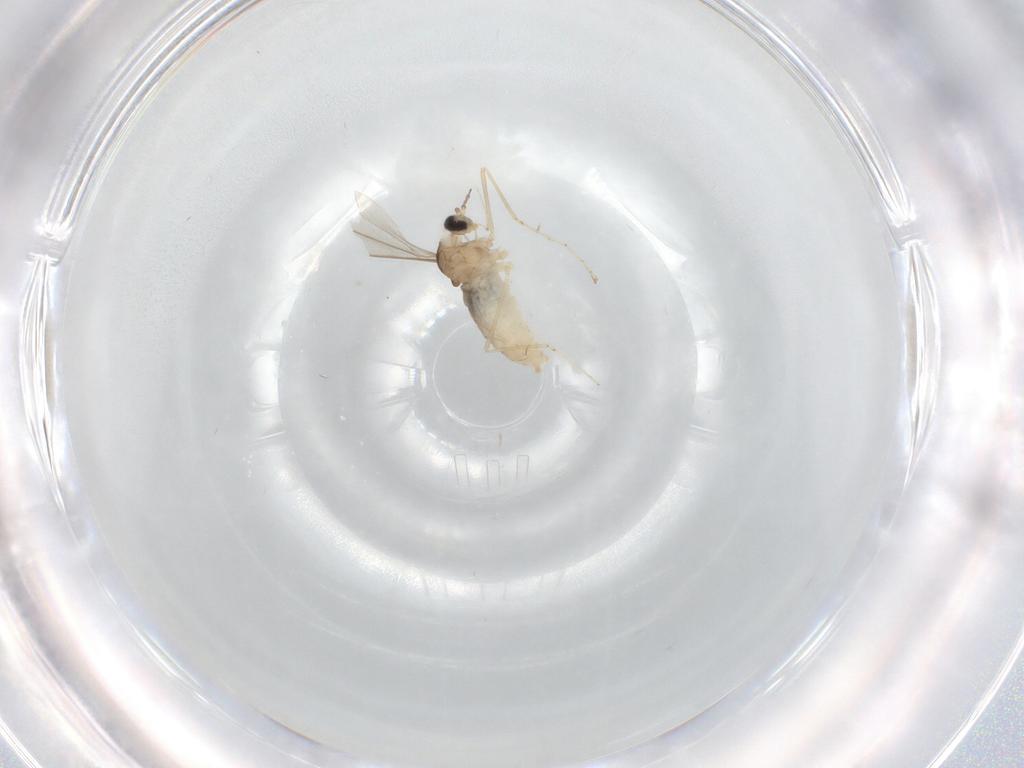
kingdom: Animalia
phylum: Arthropoda
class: Insecta
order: Diptera
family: Cecidomyiidae
